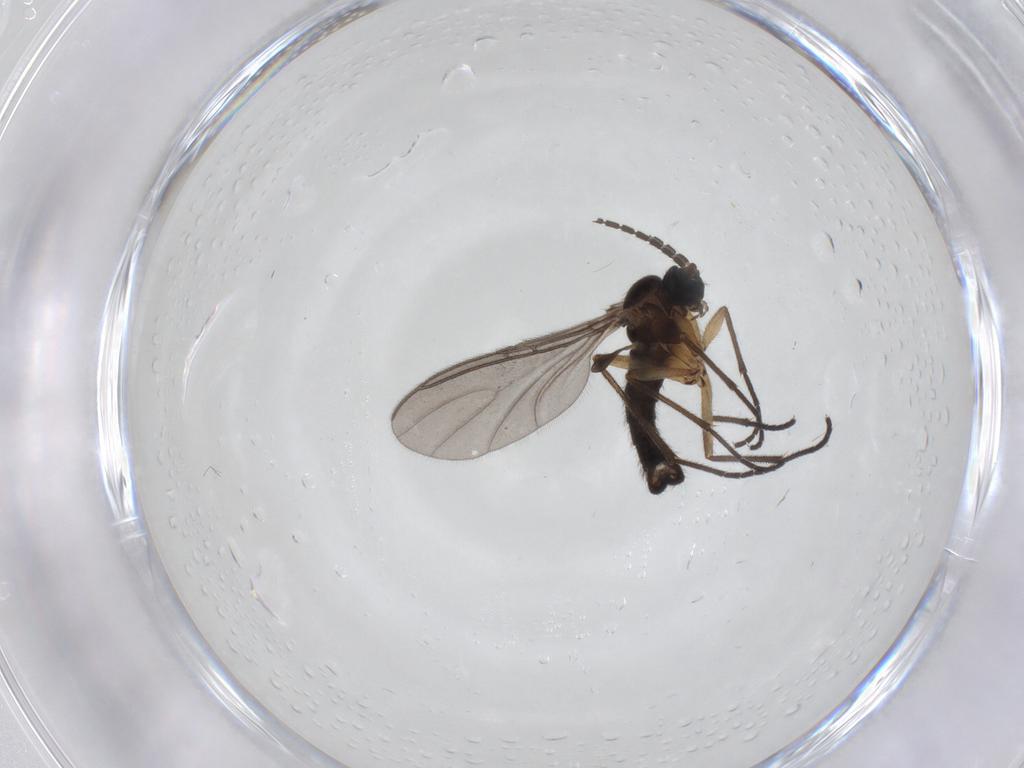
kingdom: Animalia
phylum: Arthropoda
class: Insecta
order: Diptera
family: Sciaridae
